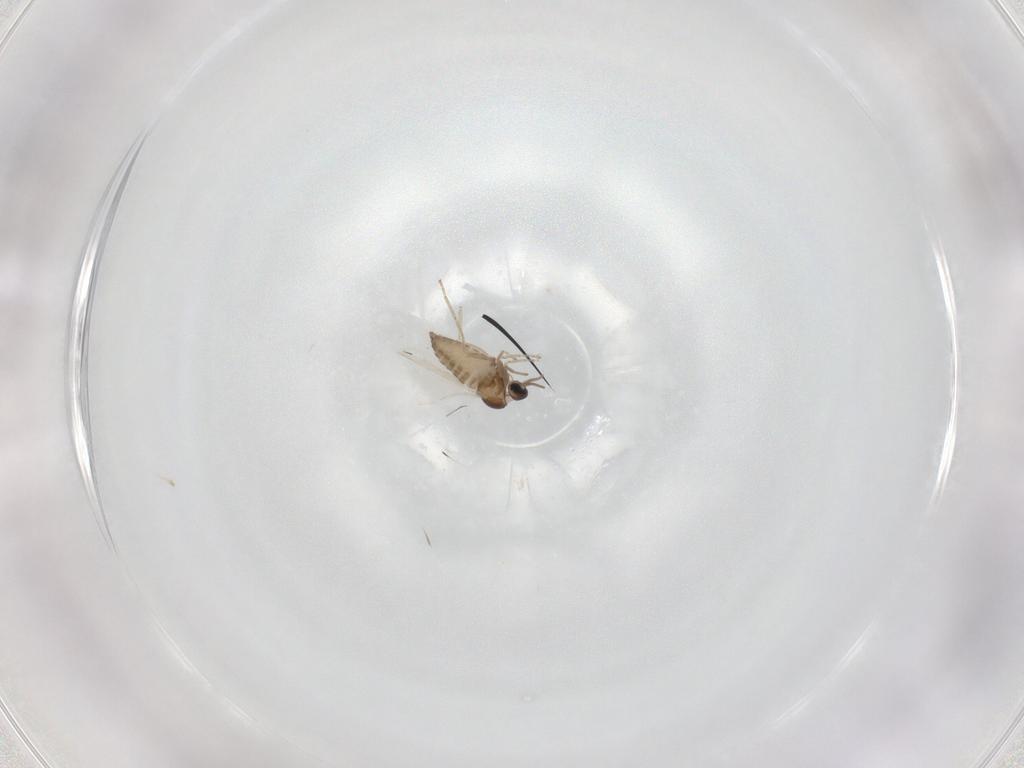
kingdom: Animalia
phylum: Arthropoda
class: Insecta
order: Diptera
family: Cecidomyiidae
